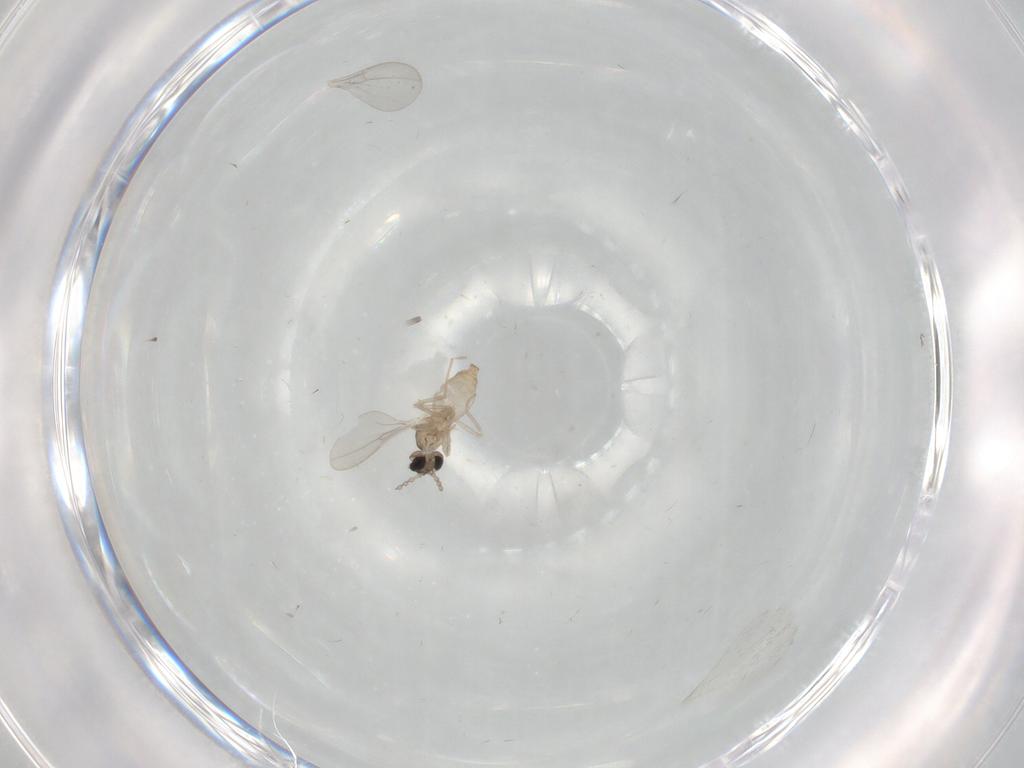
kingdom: Animalia
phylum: Arthropoda
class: Insecta
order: Diptera
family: Cecidomyiidae
